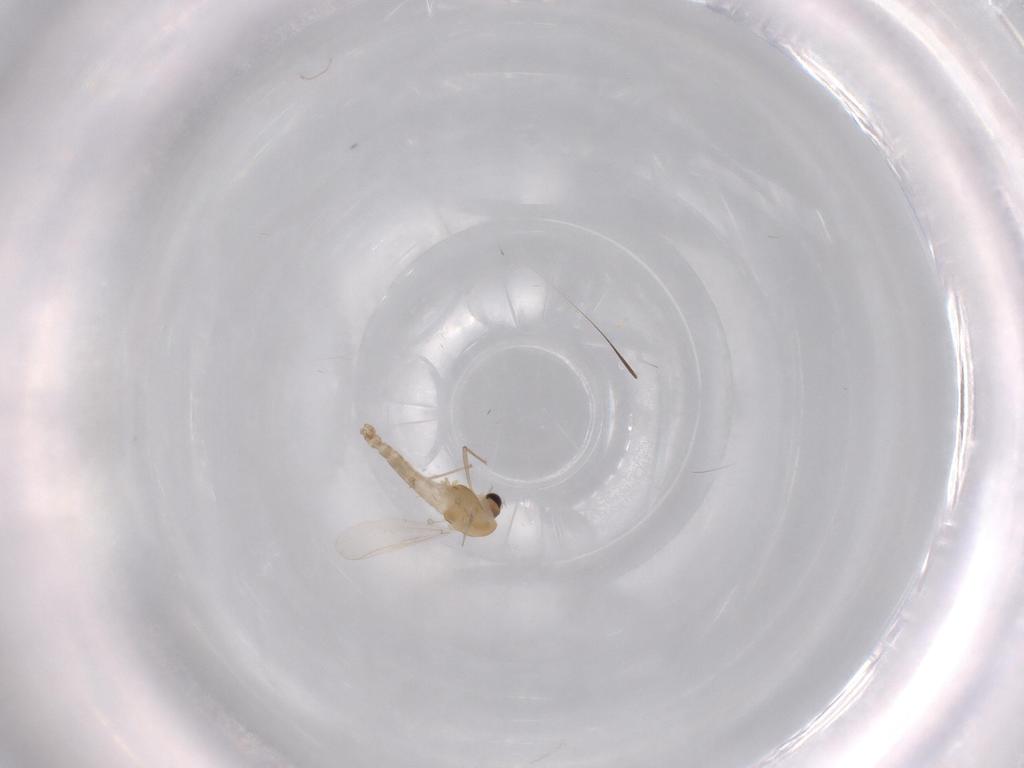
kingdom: Animalia
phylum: Arthropoda
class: Insecta
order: Diptera
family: Chironomidae
